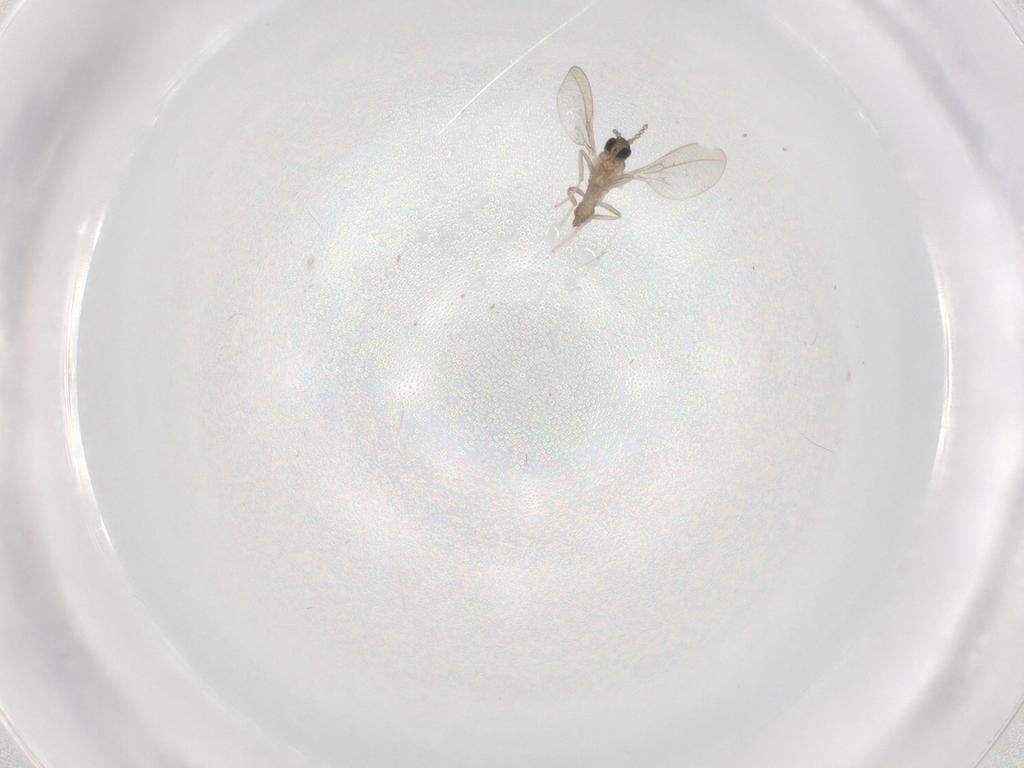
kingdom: Animalia
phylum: Arthropoda
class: Insecta
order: Diptera
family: Cecidomyiidae
